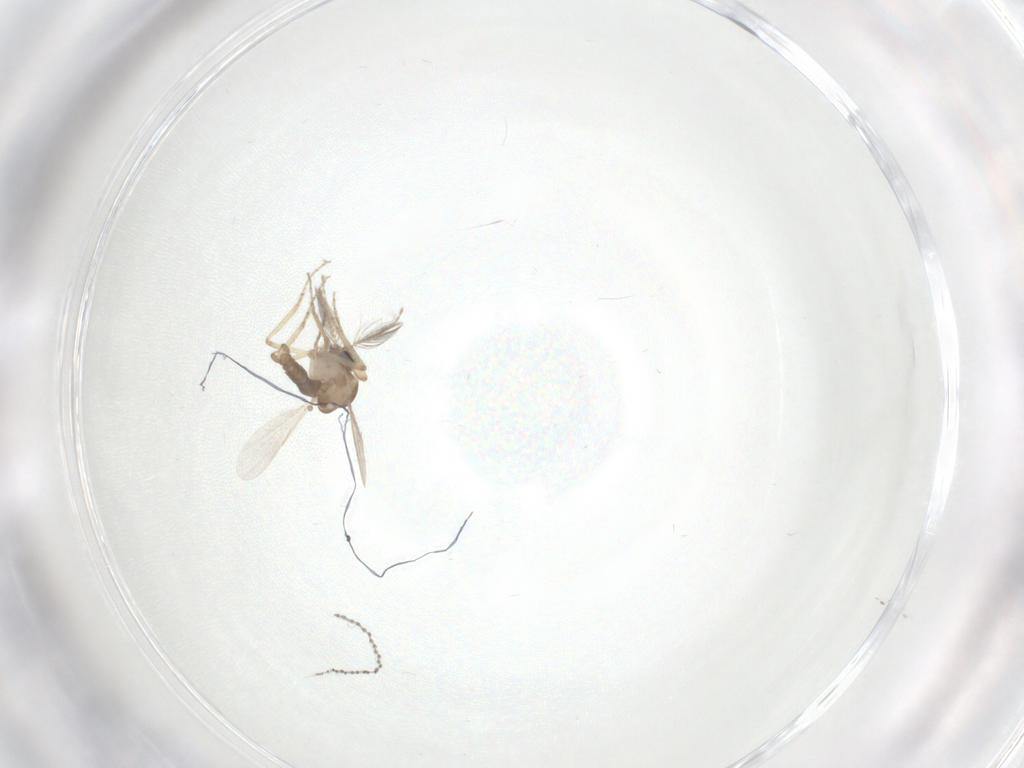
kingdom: Animalia
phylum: Arthropoda
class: Insecta
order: Diptera
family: Ceratopogonidae
